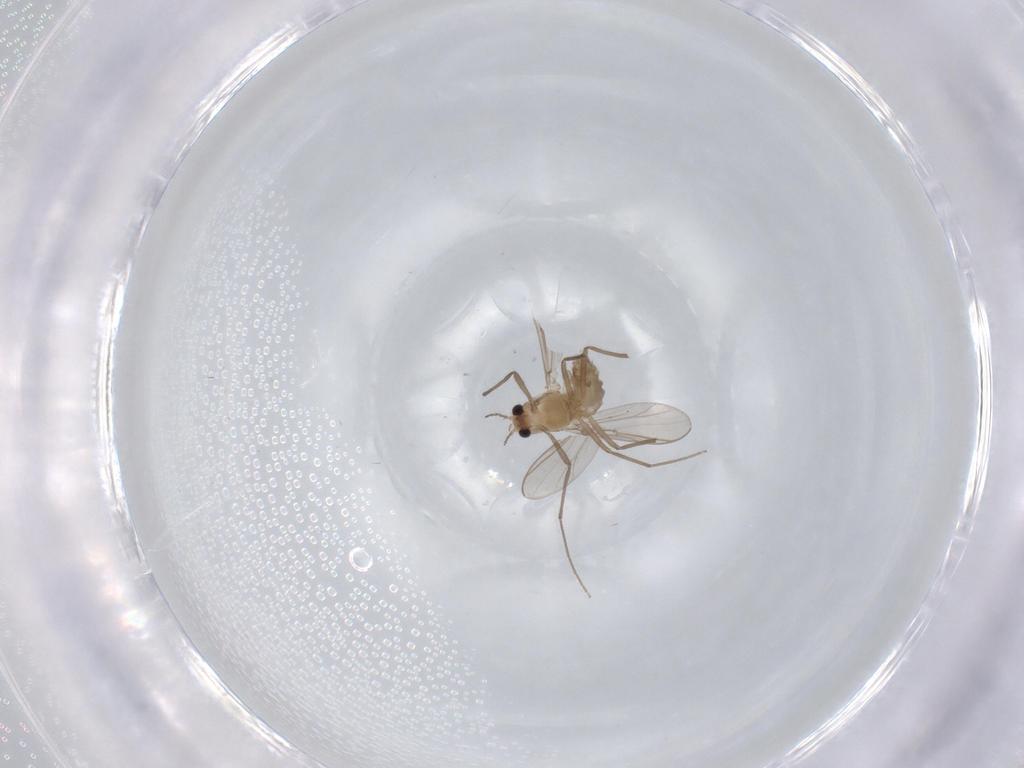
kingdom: Animalia
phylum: Arthropoda
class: Insecta
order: Diptera
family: Chironomidae
